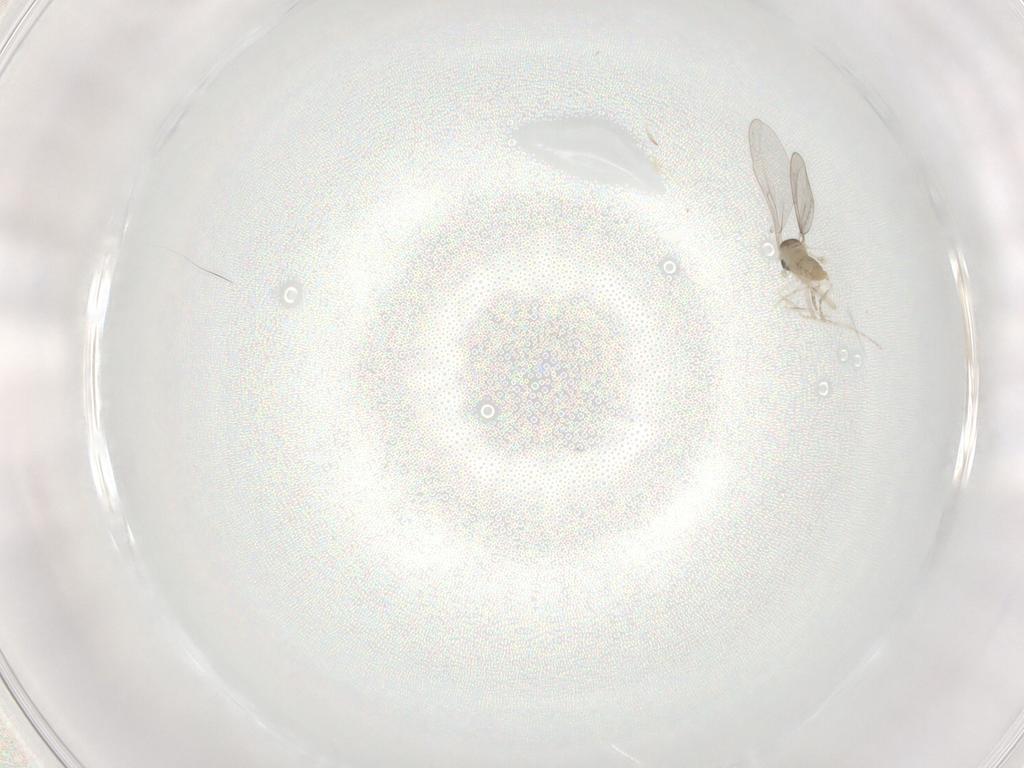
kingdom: Animalia
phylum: Arthropoda
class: Insecta
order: Diptera
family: Cecidomyiidae
